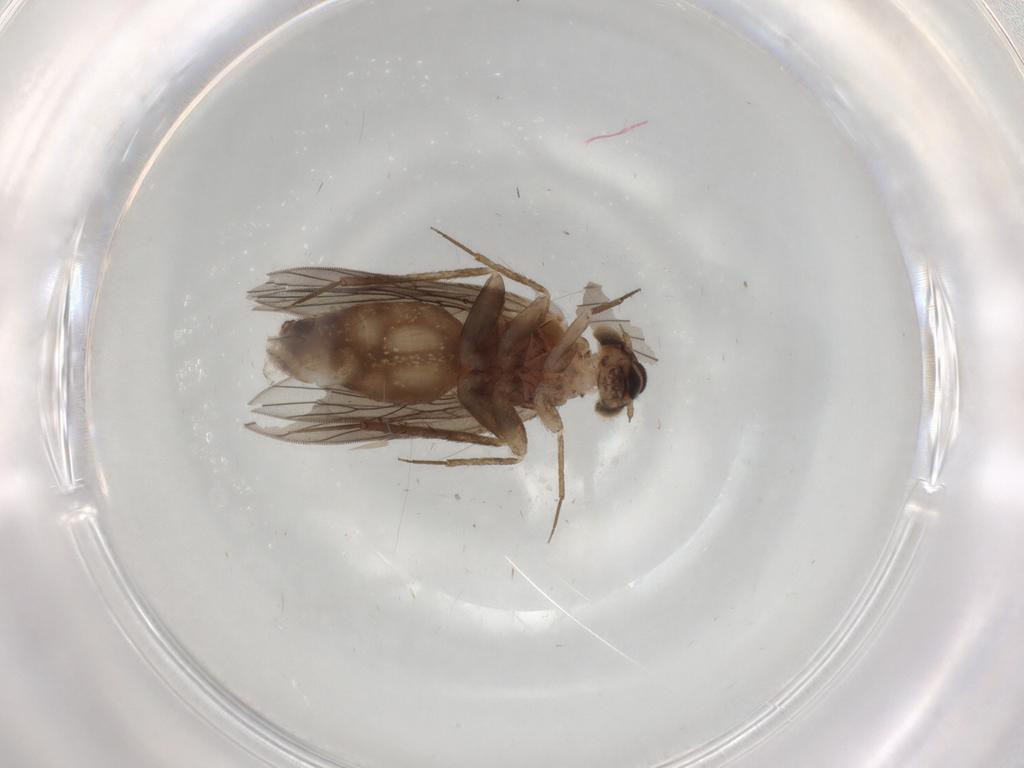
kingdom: Animalia
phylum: Arthropoda
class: Insecta
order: Psocodea
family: Lepidopsocidae
